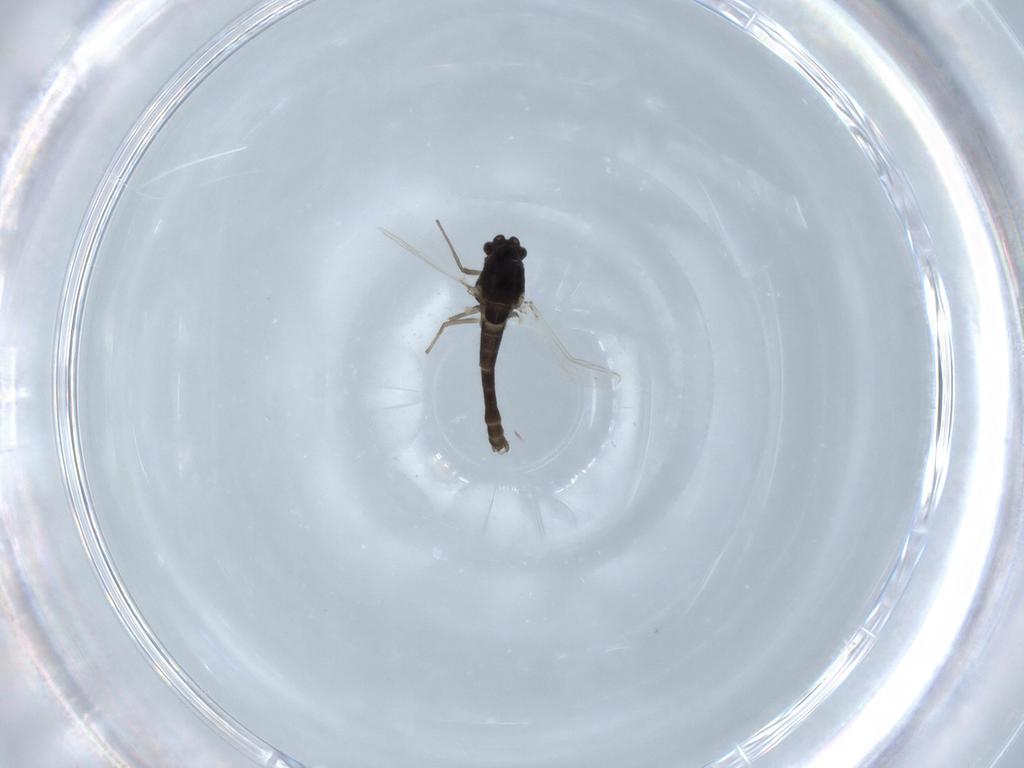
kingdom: Animalia
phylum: Arthropoda
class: Insecta
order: Diptera
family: Chironomidae
